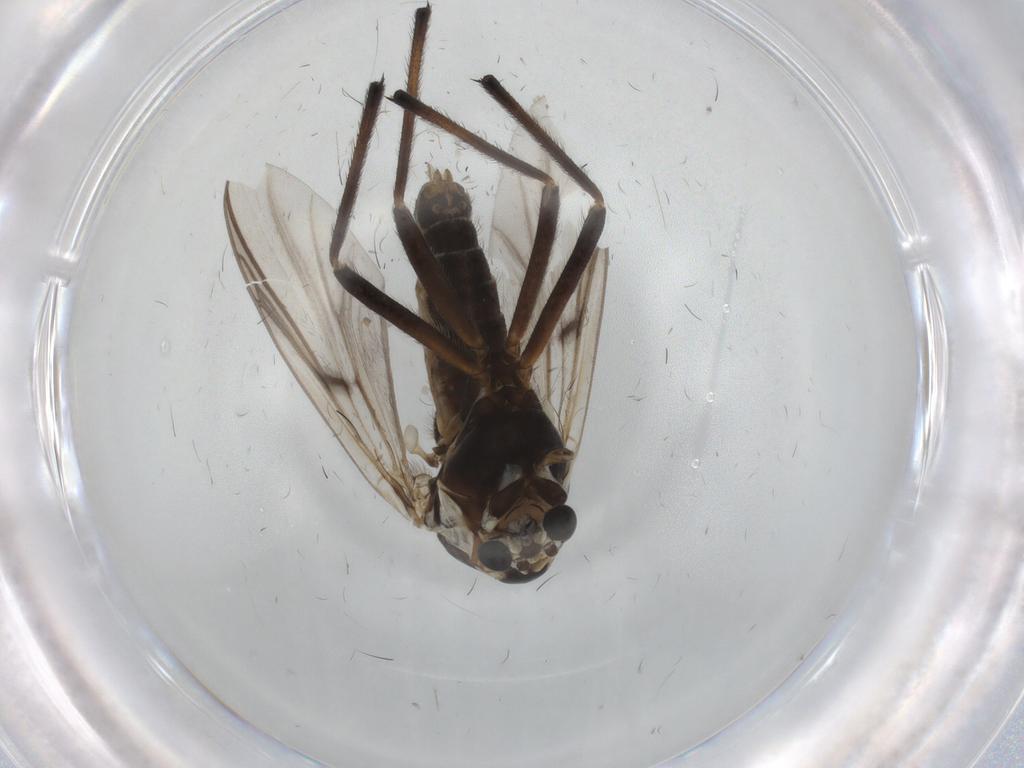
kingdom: Animalia
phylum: Arthropoda
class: Insecta
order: Diptera
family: Chironomidae
